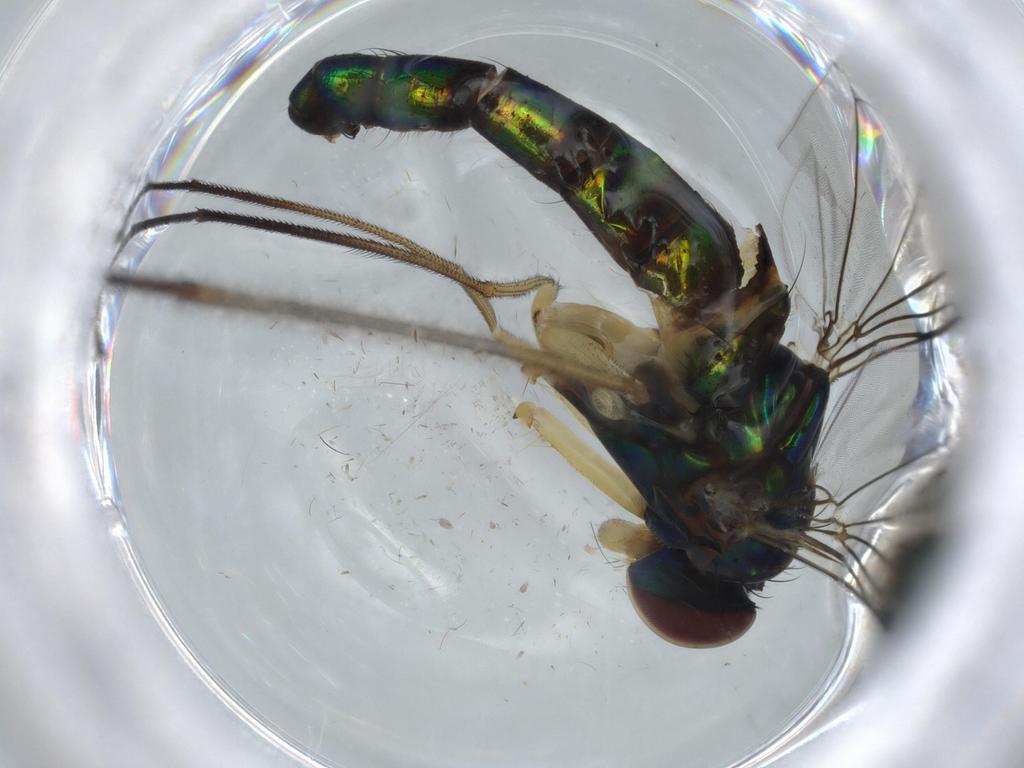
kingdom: Animalia
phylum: Arthropoda
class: Insecta
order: Diptera
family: Dolichopodidae
